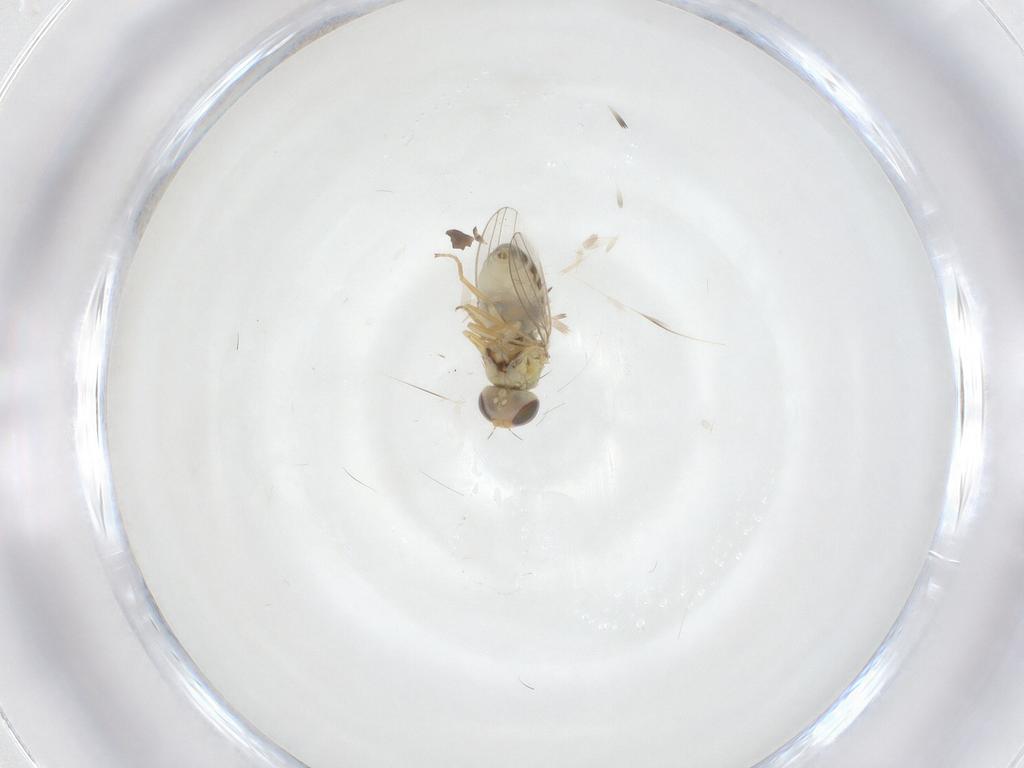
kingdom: Animalia
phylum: Arthropoda
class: Insecta
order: Diptera
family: Chyromyidae
